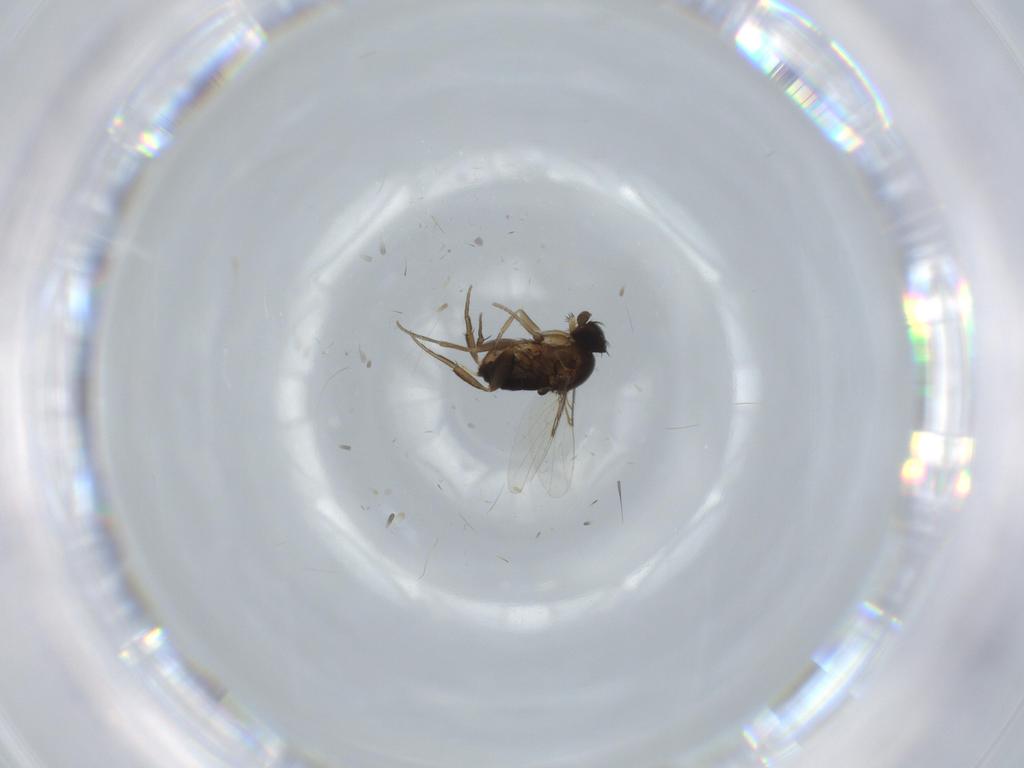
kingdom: Animalia
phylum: Arthropoda
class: Insecta
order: Diptera
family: Phoridae
